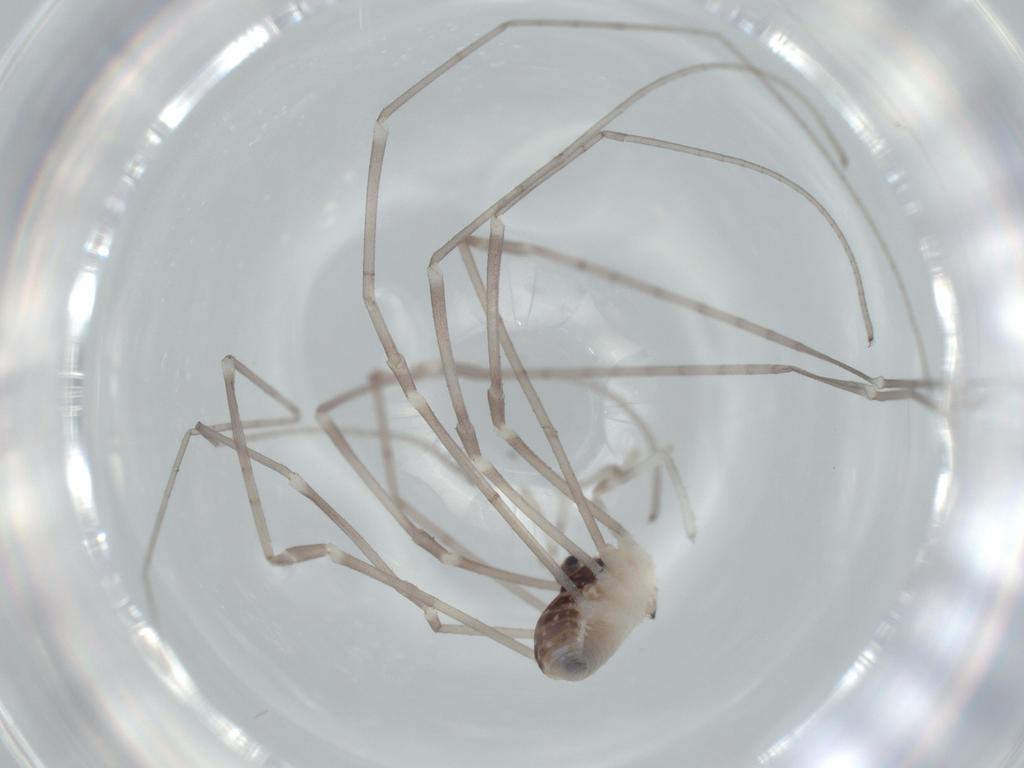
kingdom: Animalia
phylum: Arthropoda
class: Arachnida
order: Opiliones
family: Sclerosomatidae
